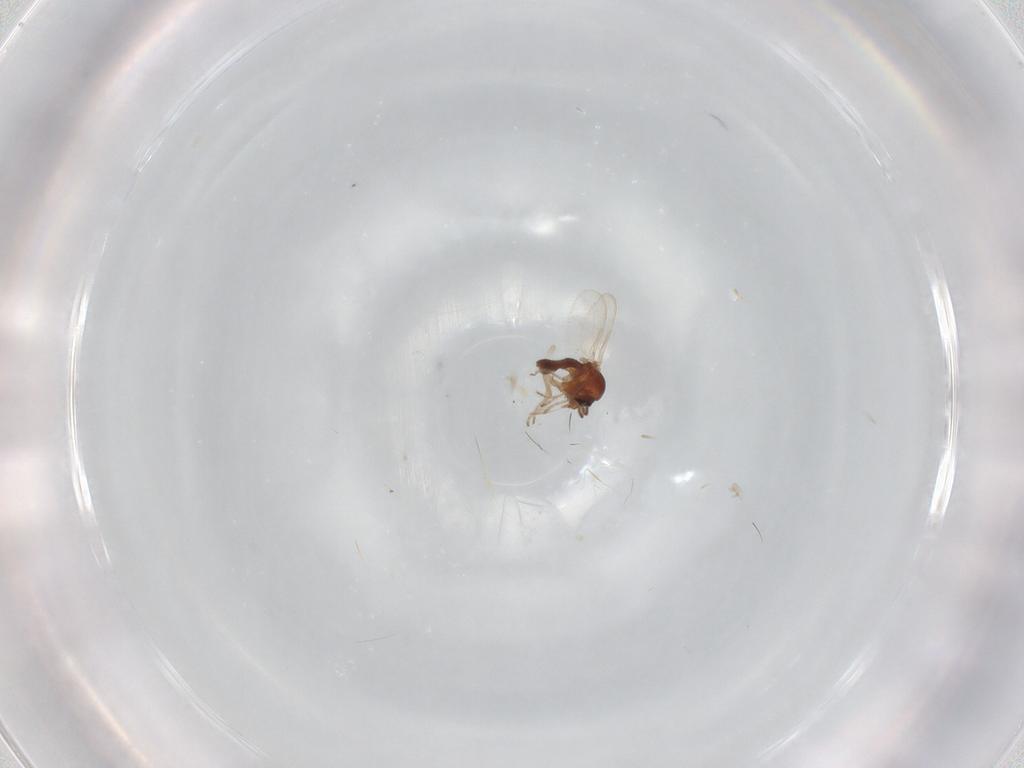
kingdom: Animalia
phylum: Arthropoda
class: Insecta
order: Diptera
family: Ceratopogonidae
